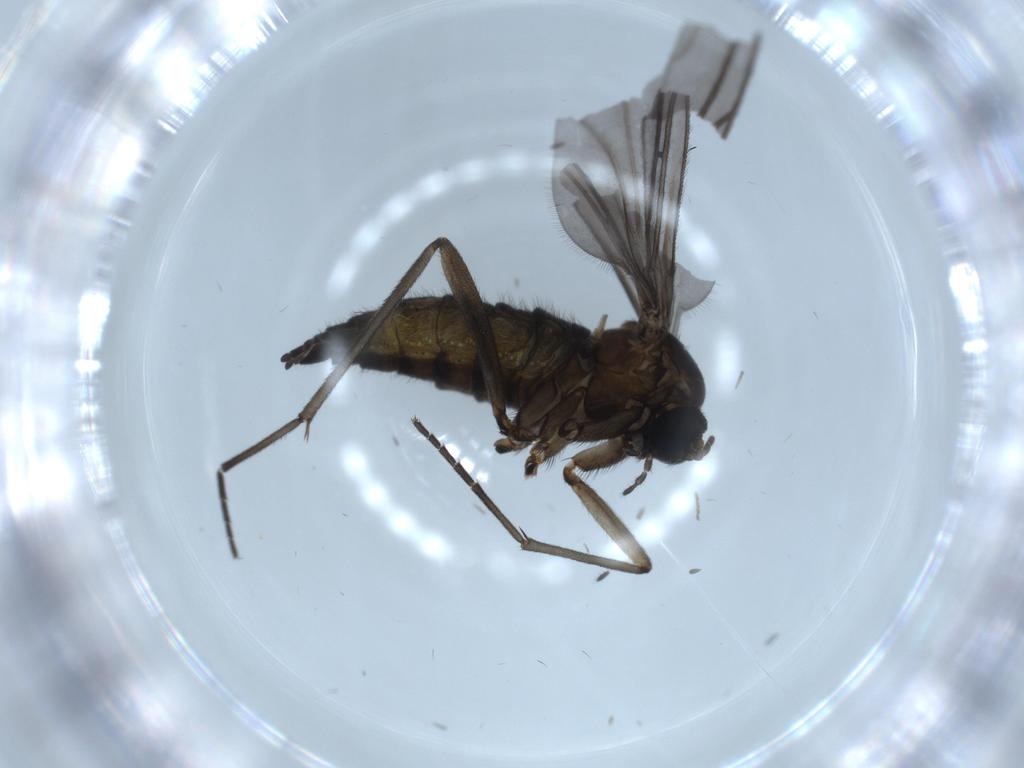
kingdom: Animalia
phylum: Arthropoda
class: Insecta
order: Diptera
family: Sciaridae
